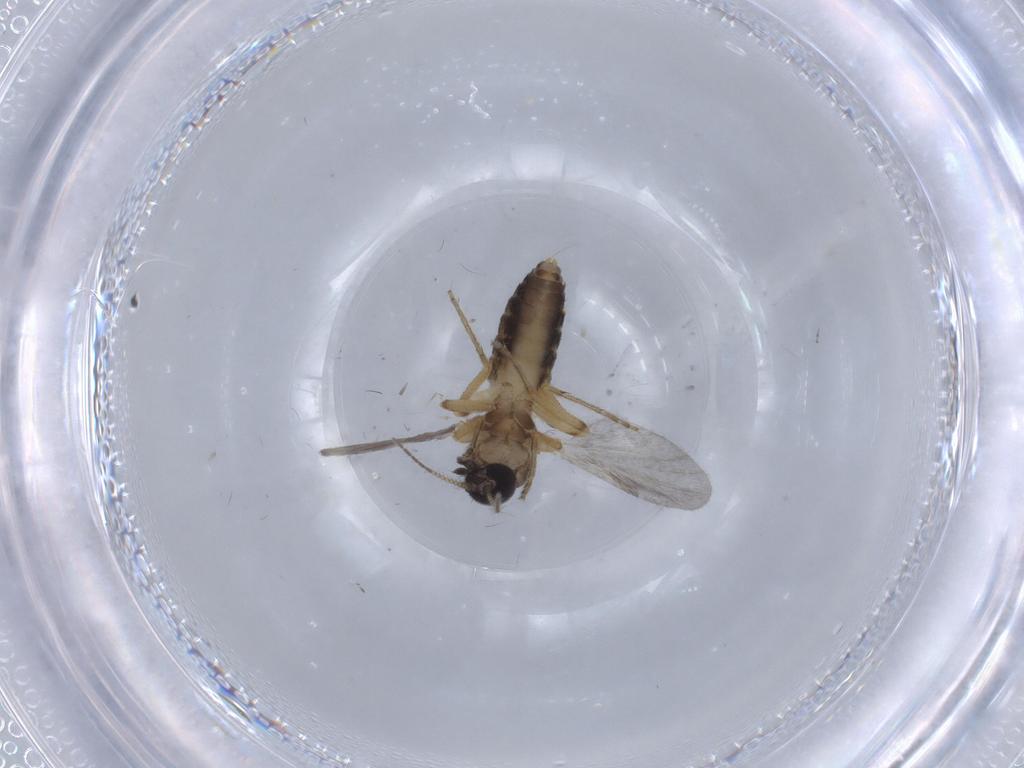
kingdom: Animalia
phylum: Arthropoda
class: Insecta
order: Diptera
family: Ceratopogonidae
